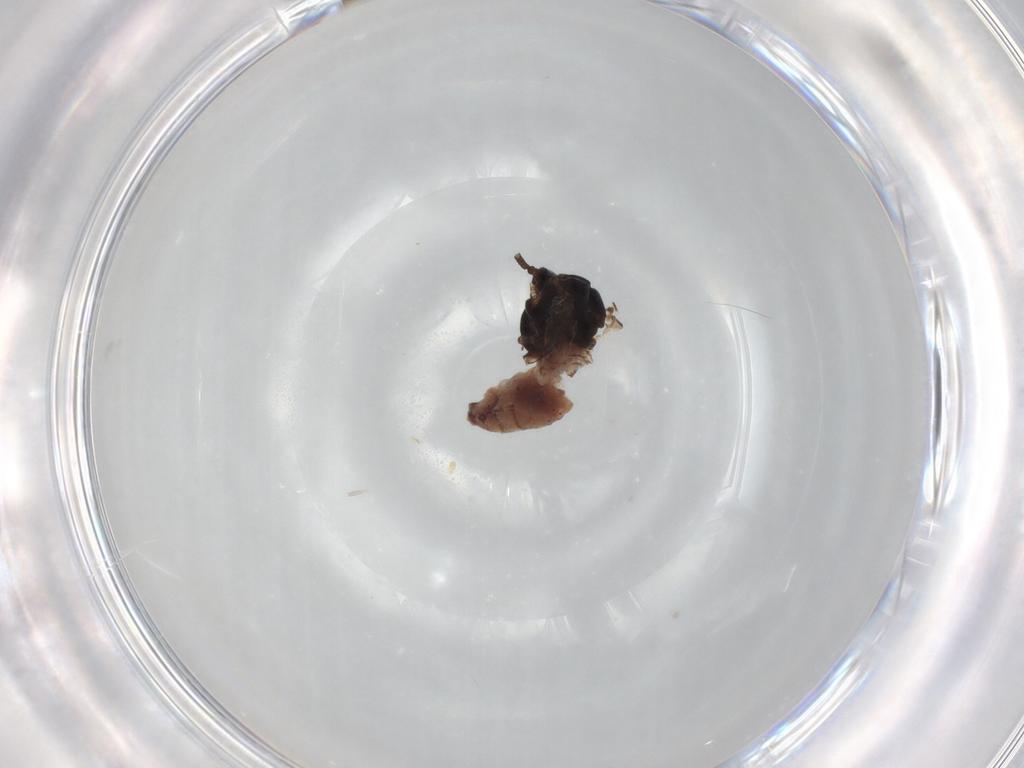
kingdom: Animalia
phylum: Arthropoda
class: Insecta
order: Hemiptera
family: Aphididae
